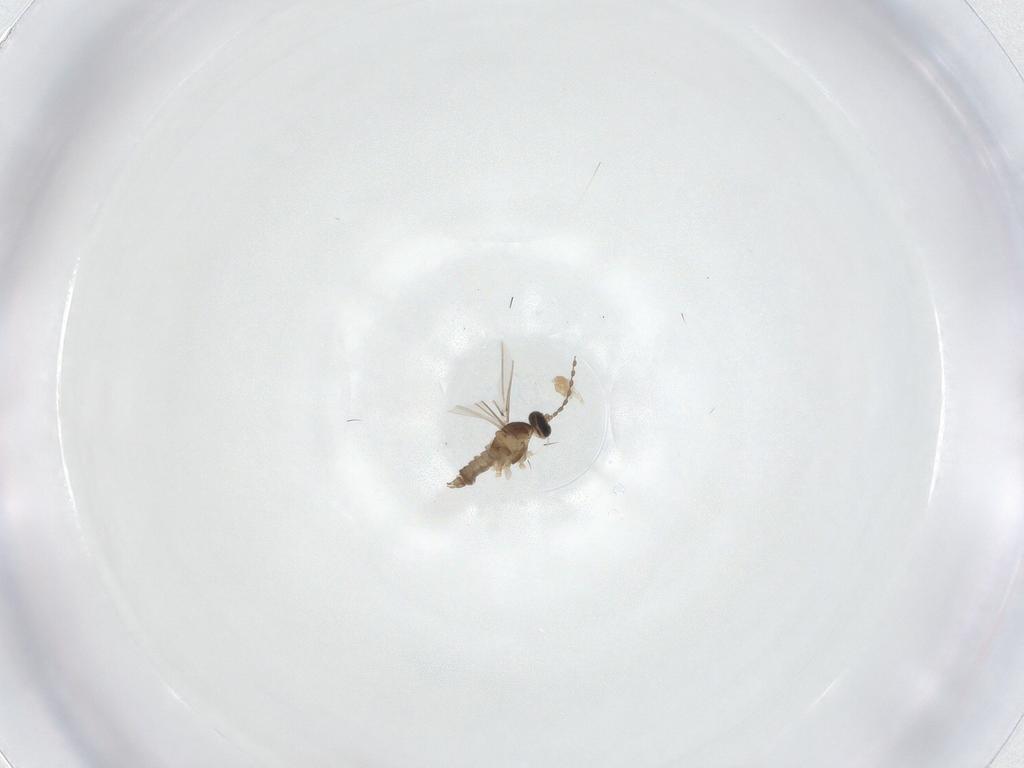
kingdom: Animalia
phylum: Arthropoda
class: Insecta
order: Diptera
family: Cecidomyiidae
